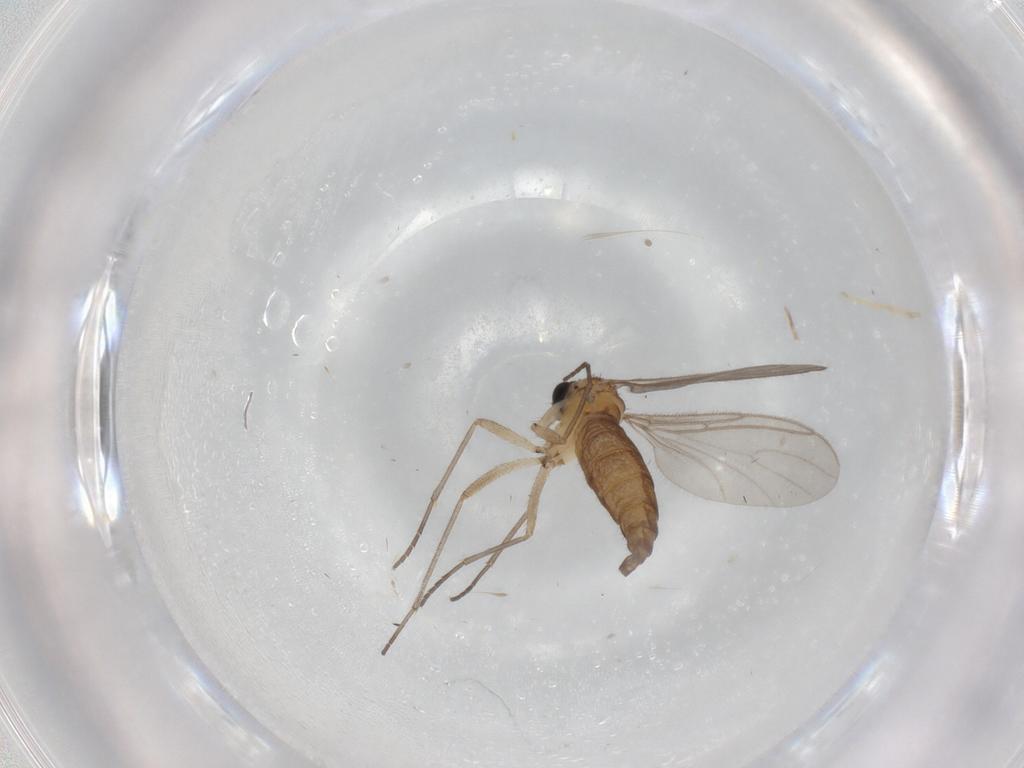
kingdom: Animalia
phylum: Arthropoda
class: Insecta
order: Diptera
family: Sciaridae
